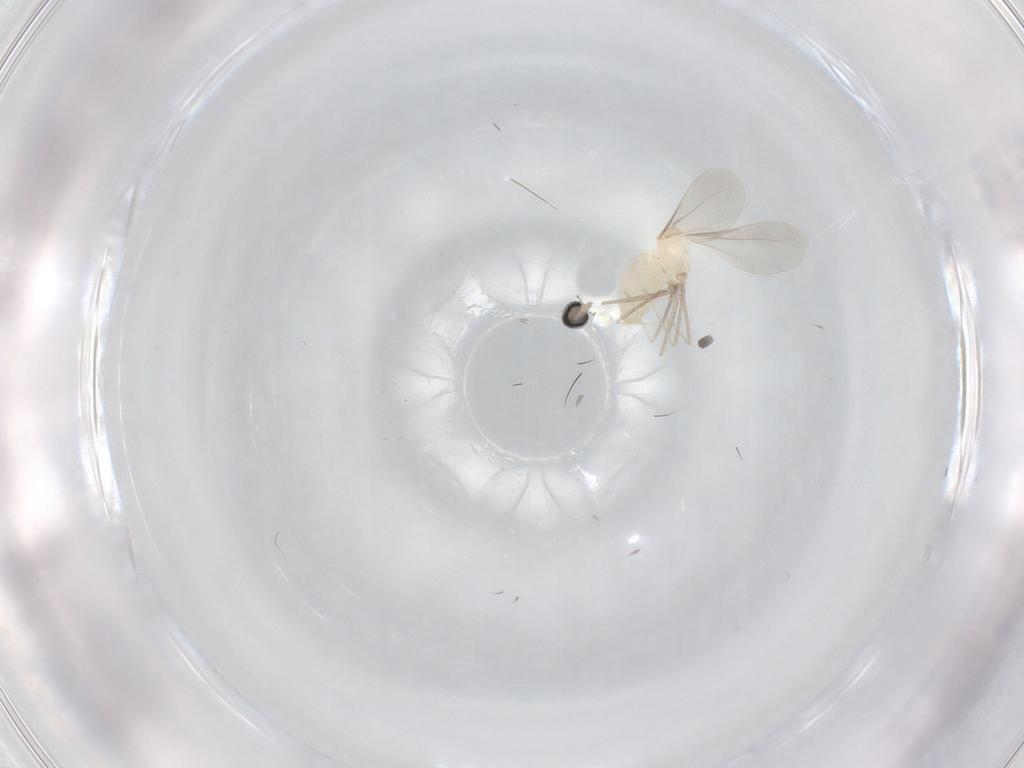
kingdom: Animalia
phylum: Arthropoda
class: Insecta
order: Diptera
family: Cecidomyiidae
